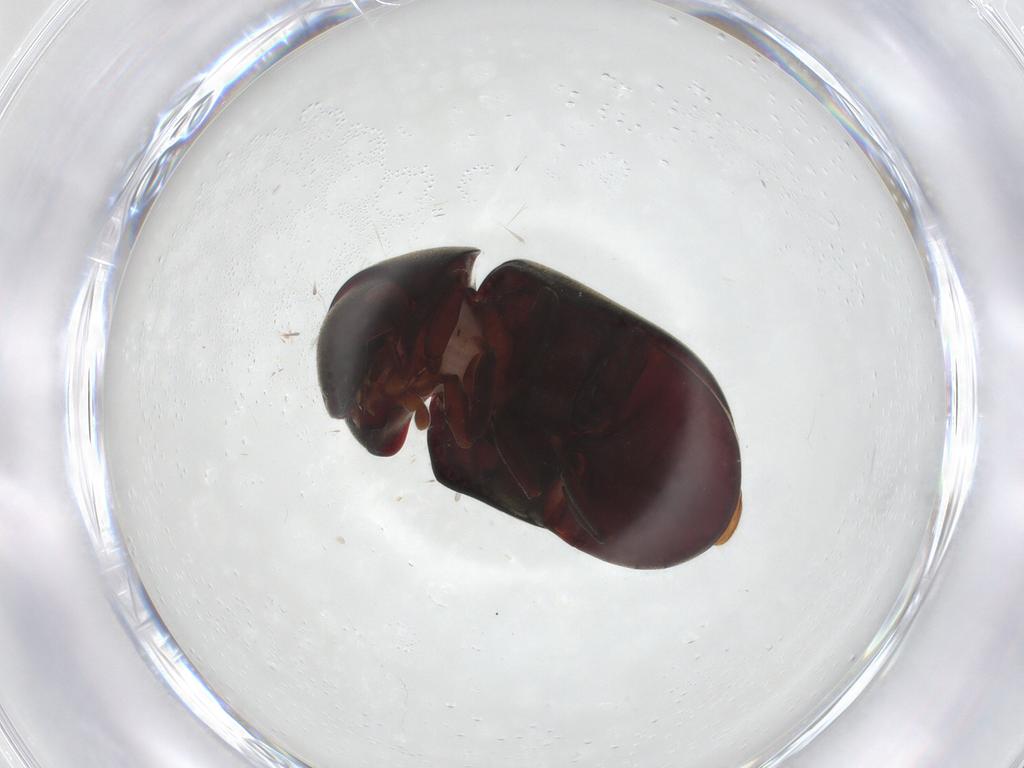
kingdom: Animalia
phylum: Arthropoda
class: Insecta
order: Coleoptera
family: Ptinidae
